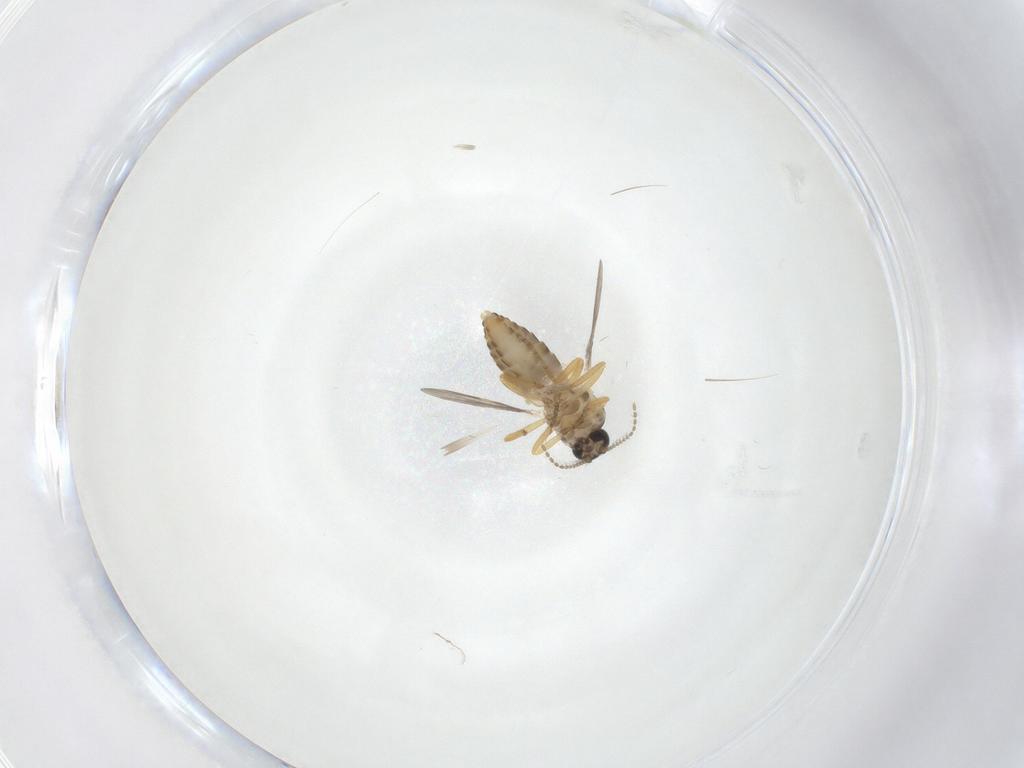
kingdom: Animalia
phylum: Arthropoda
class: Insecta
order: Diptera
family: Ceratopogonidae
